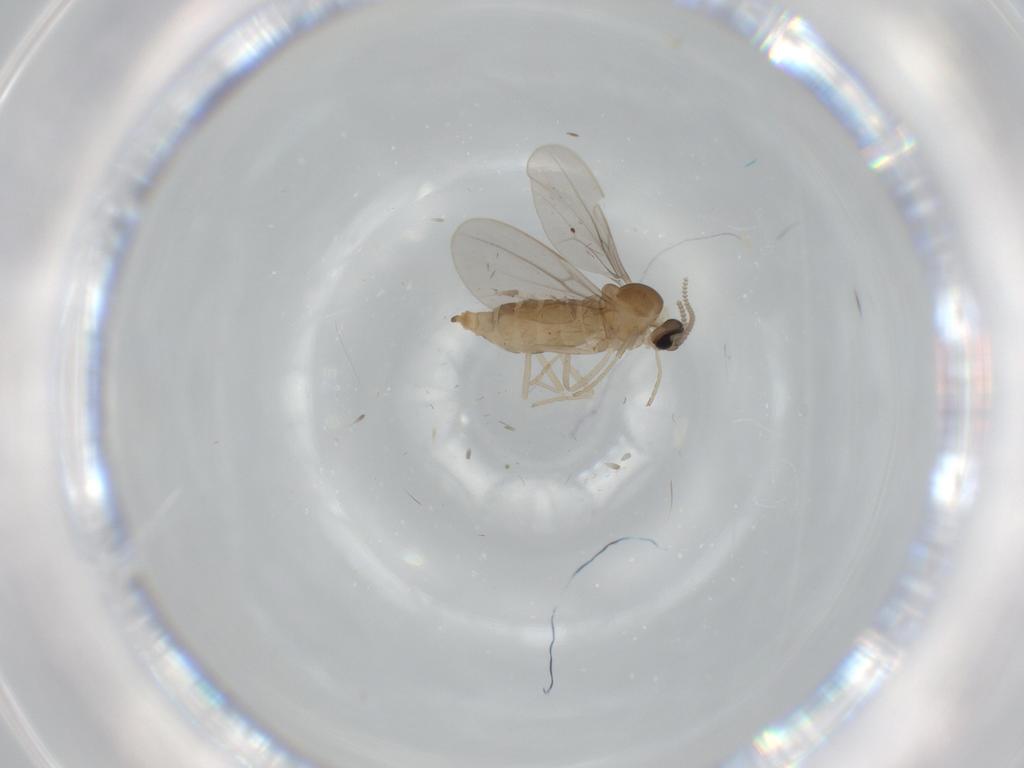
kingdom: Animalia
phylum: Arthropoda
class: Insecta
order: Diptera
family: Cecidomyiidae
